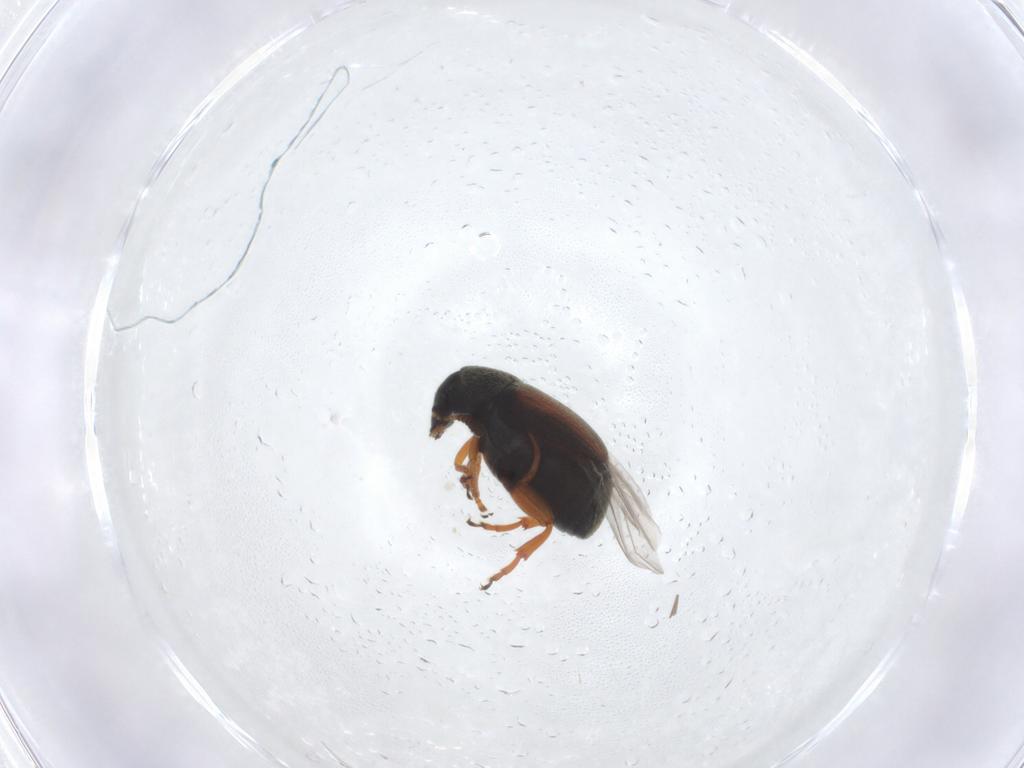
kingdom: Animalia
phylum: Arthropoda
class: Insecta
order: Coleoptera
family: Chrysomelidae
